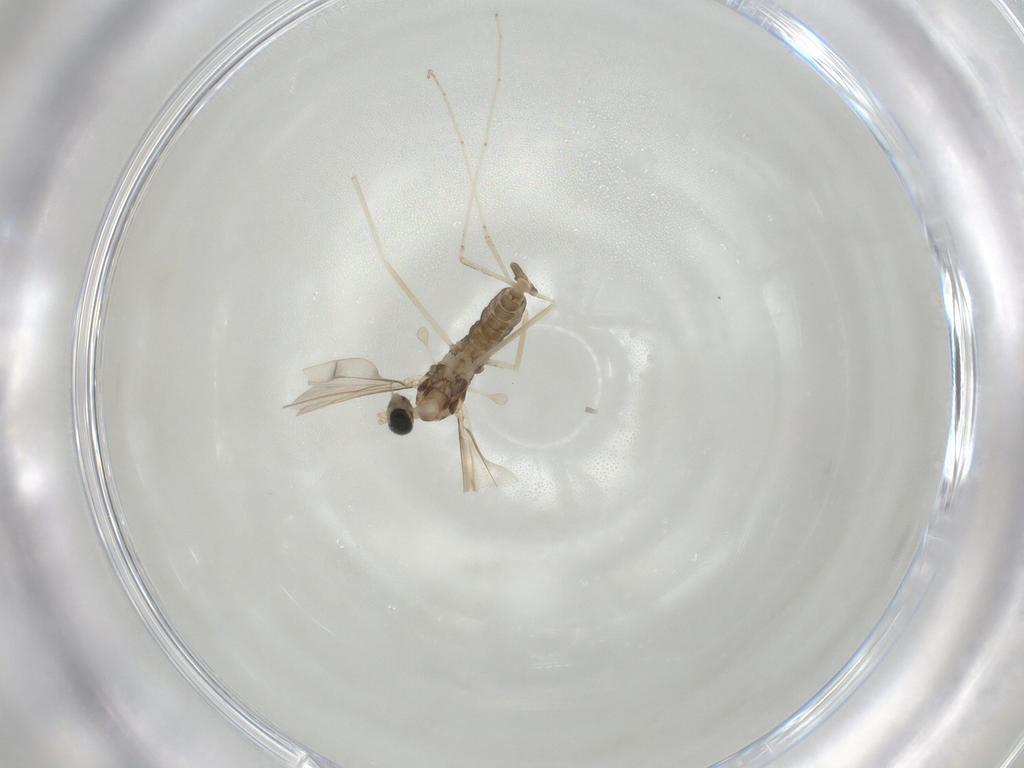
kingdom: Animalia
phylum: Arthropoda
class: Insecta
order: Diptera
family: Cecidomyiidae
